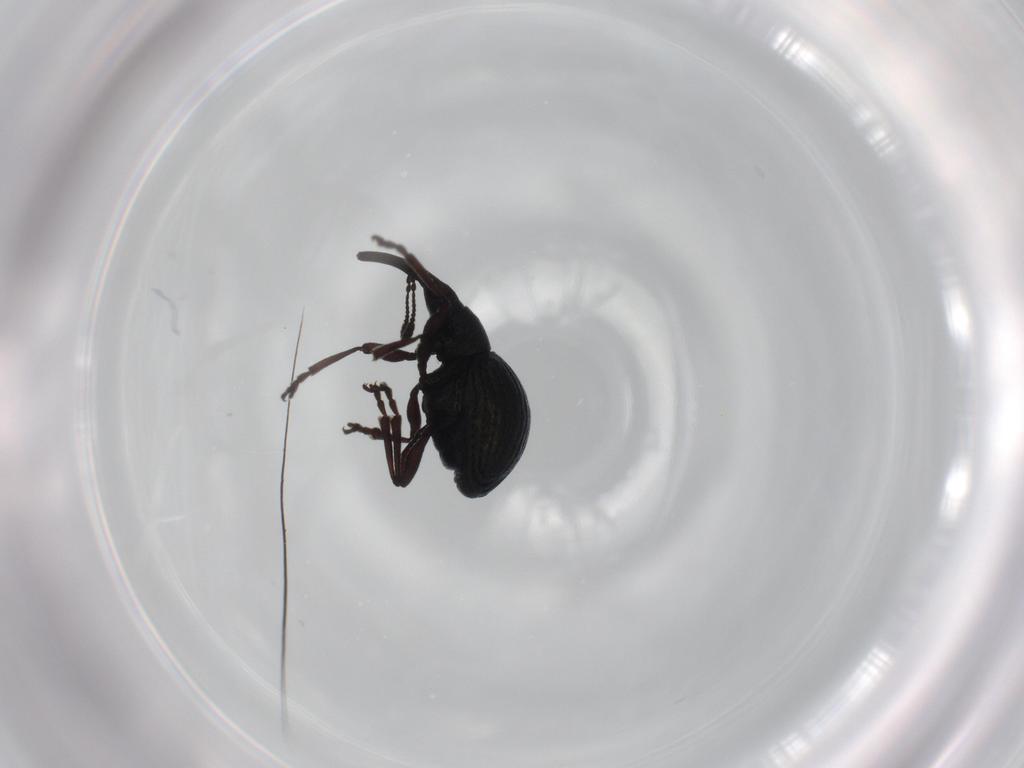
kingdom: Animalia
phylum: Arthropoda
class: Insecta
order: Coleoptera
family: Brentidae
